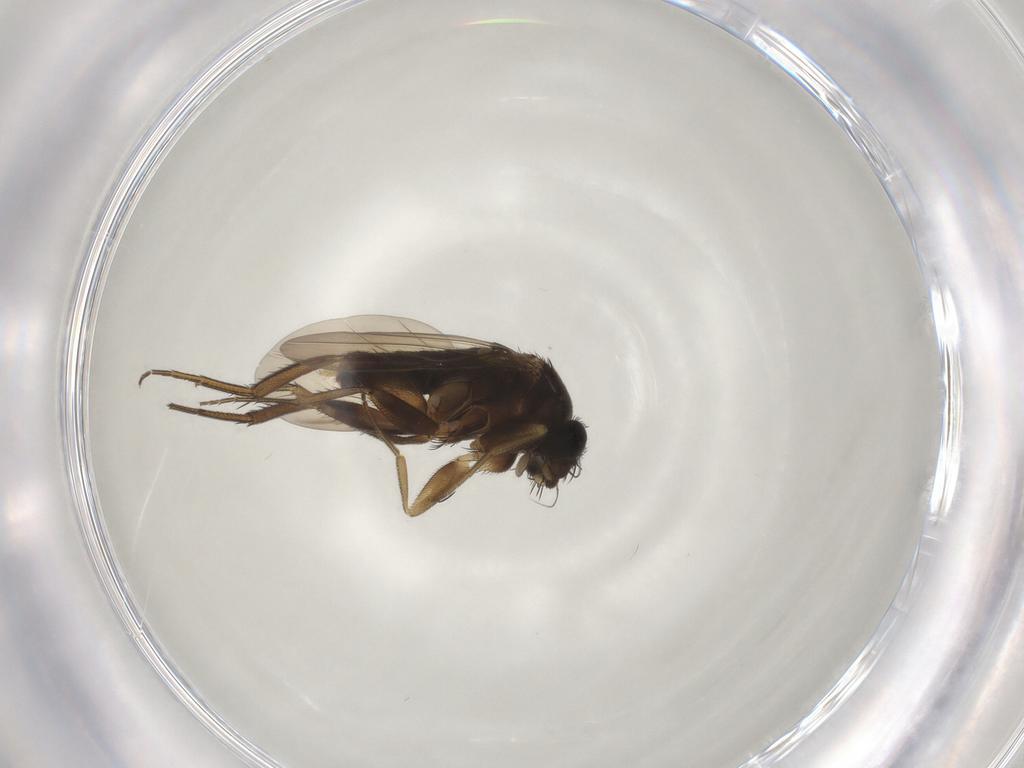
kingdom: Animalia
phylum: Arthropoda
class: Insecta
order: Diptera
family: Phoridae
